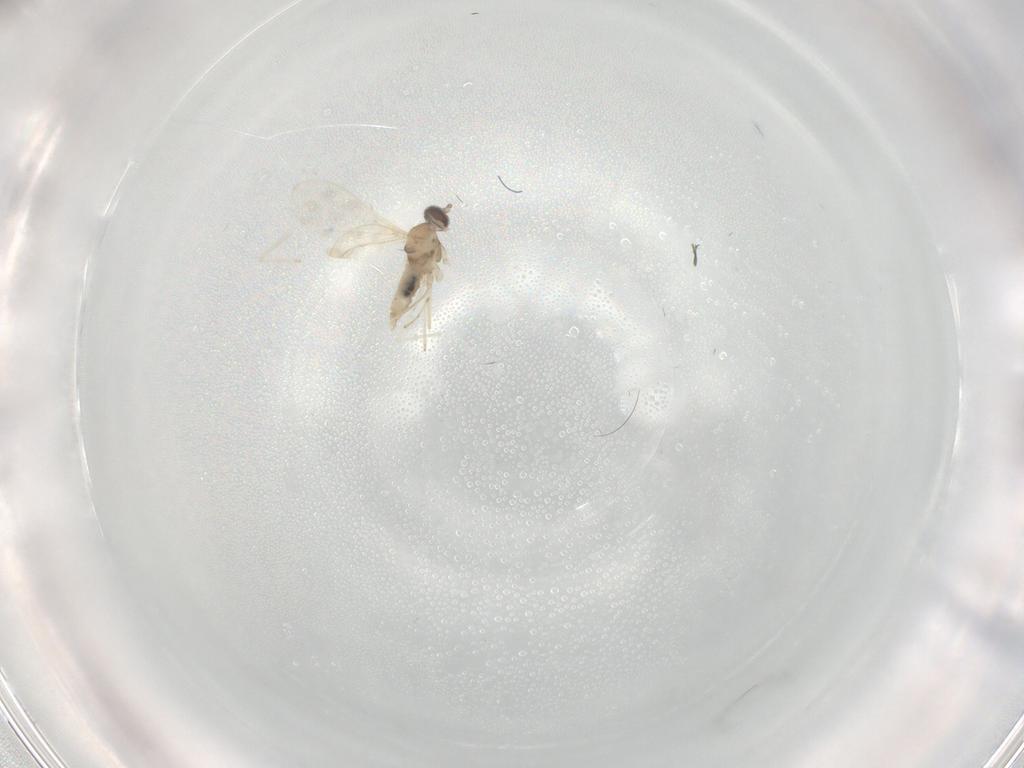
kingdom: Animalia
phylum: Arthropoda
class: Insecta
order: Diptera
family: Cecidomyiidae
